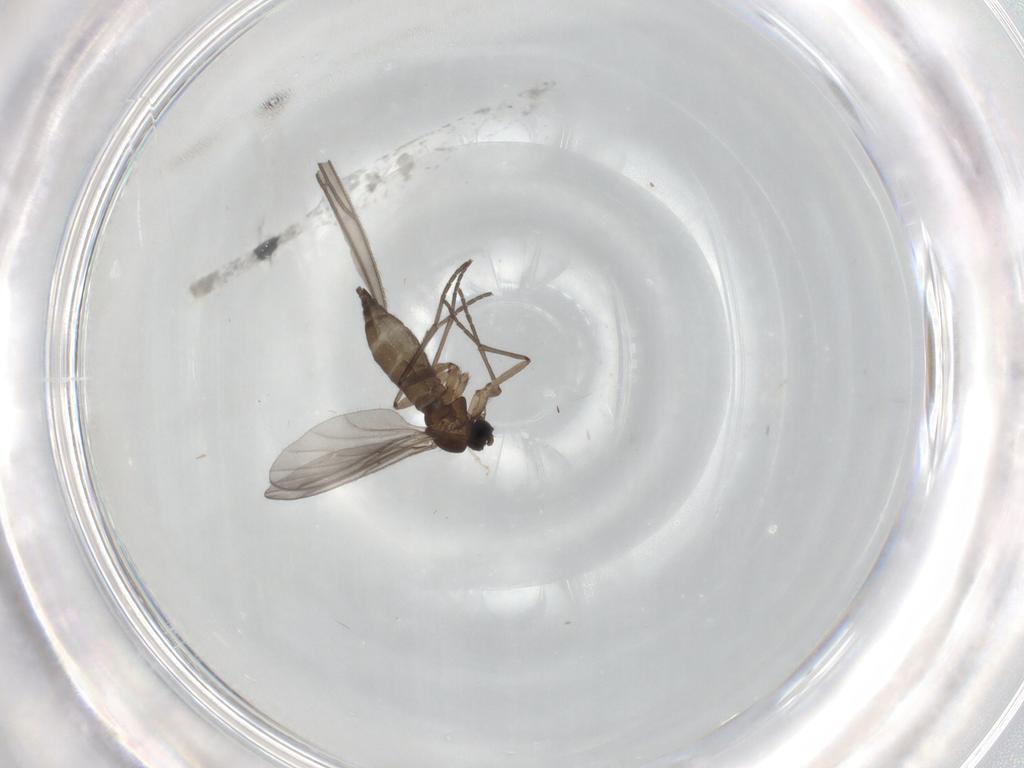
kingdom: Animalia
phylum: Arthropoda
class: Insecta
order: Diptera
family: Sciaridae
